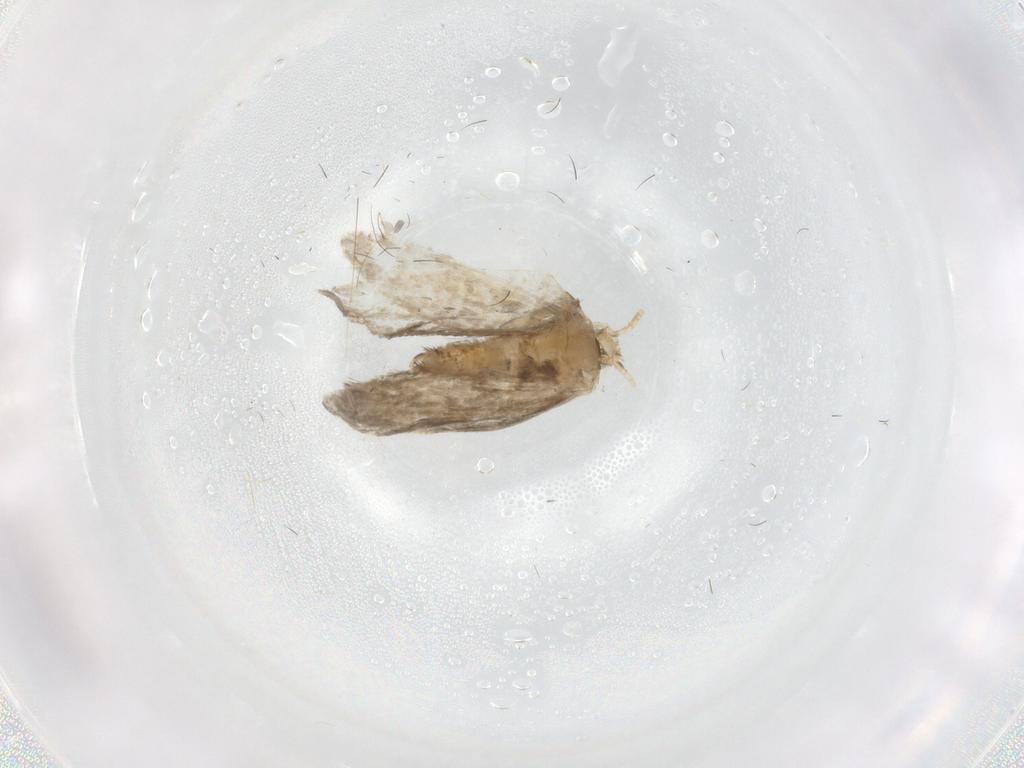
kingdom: Animalia
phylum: Arthropoda
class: Insecta
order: Lepidoptera
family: Psychidae
